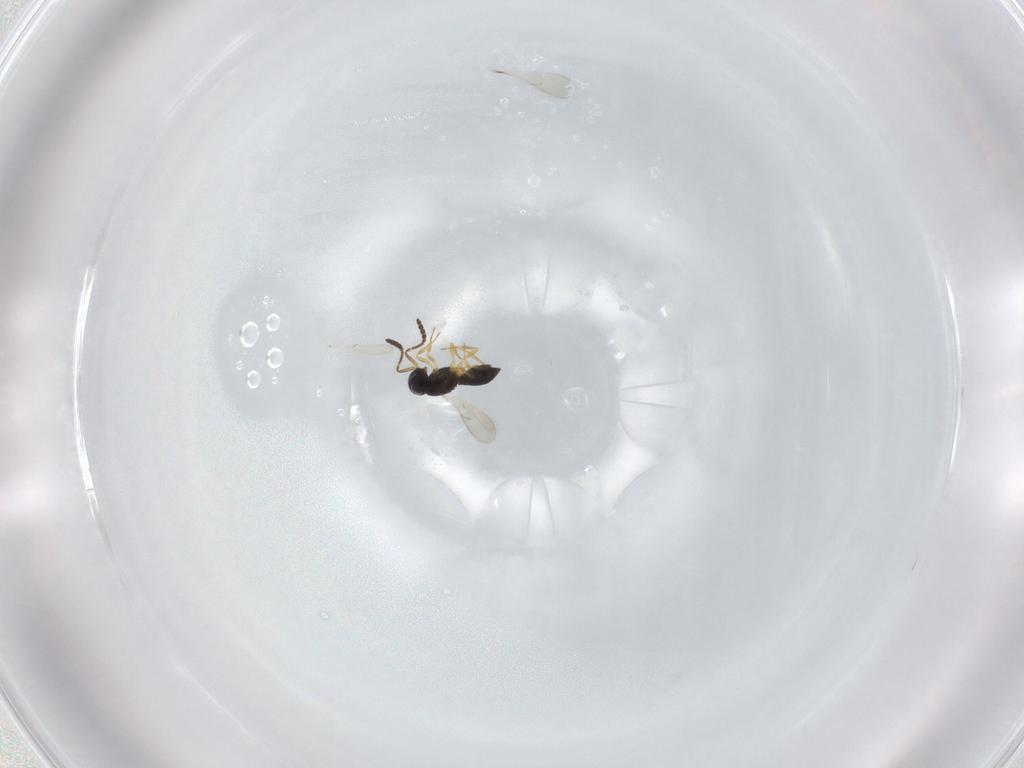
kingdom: Animalia
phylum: Arthropoda
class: Insecta
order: Hymenoptera
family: Scelionidae
